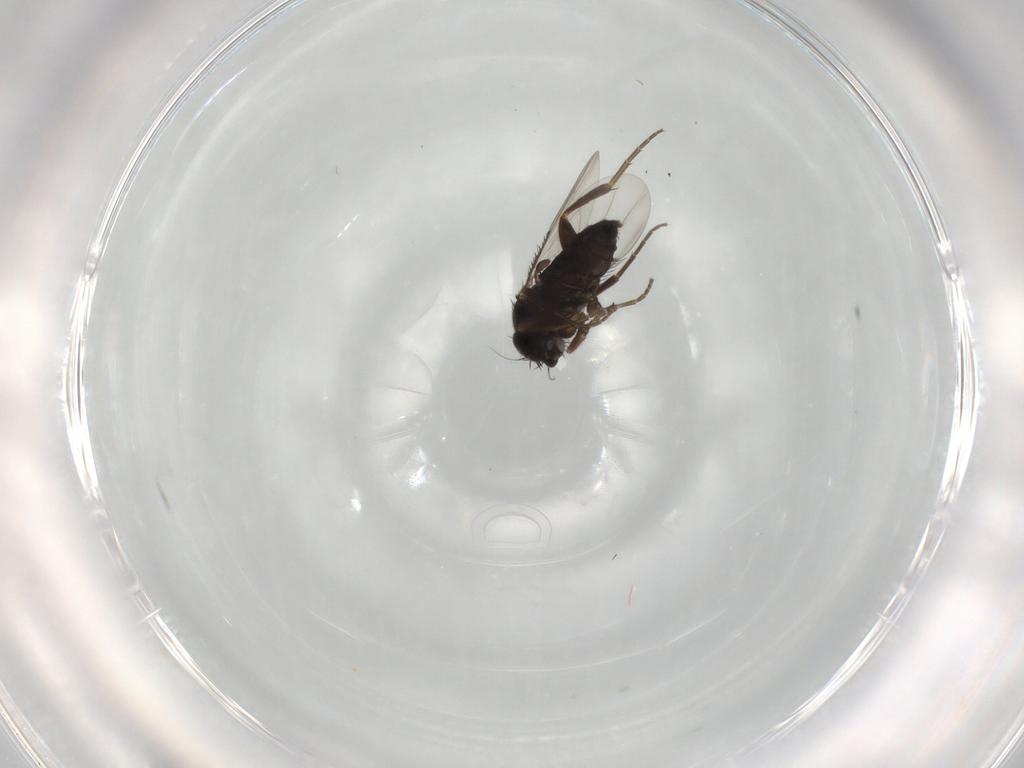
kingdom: Animalia
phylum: Arthropoda
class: Insecta
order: Diptera
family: Phoridae
